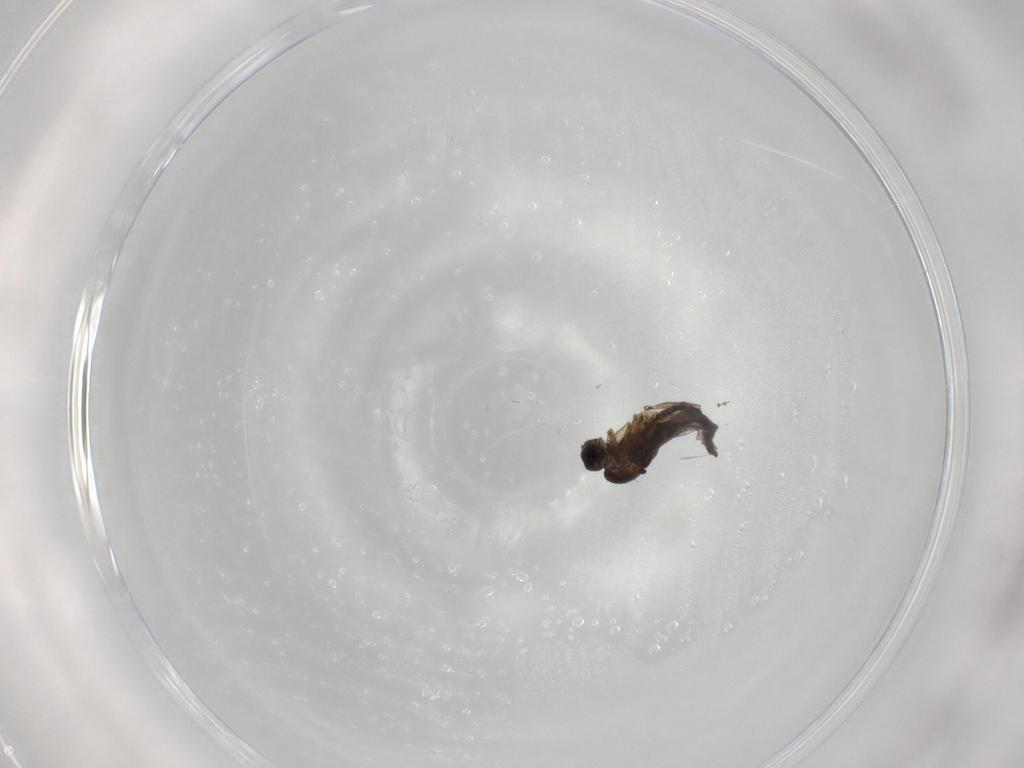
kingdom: Animalia
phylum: Arthropoda
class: Insecta
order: Diptera
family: Sciaridae
